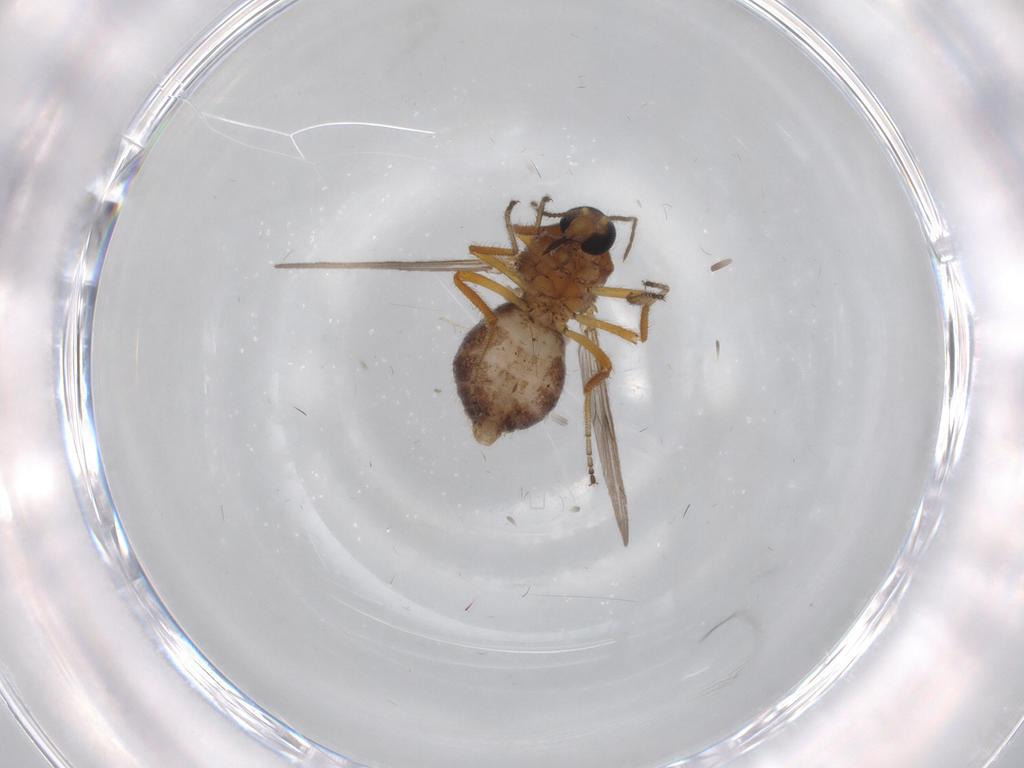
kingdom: Animalia
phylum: Arthropoda
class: Insecta
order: Diptera
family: Ceratopogonidae
